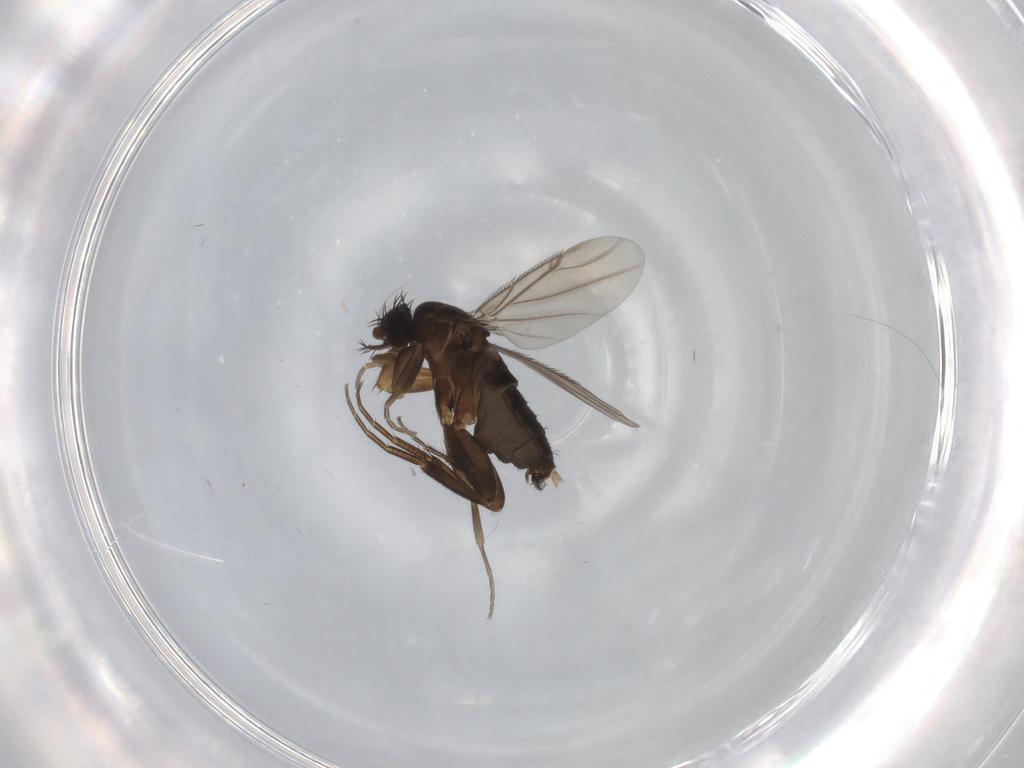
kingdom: Animalia
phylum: Arthropoda
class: Insecta
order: Diptera
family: Phoridae
